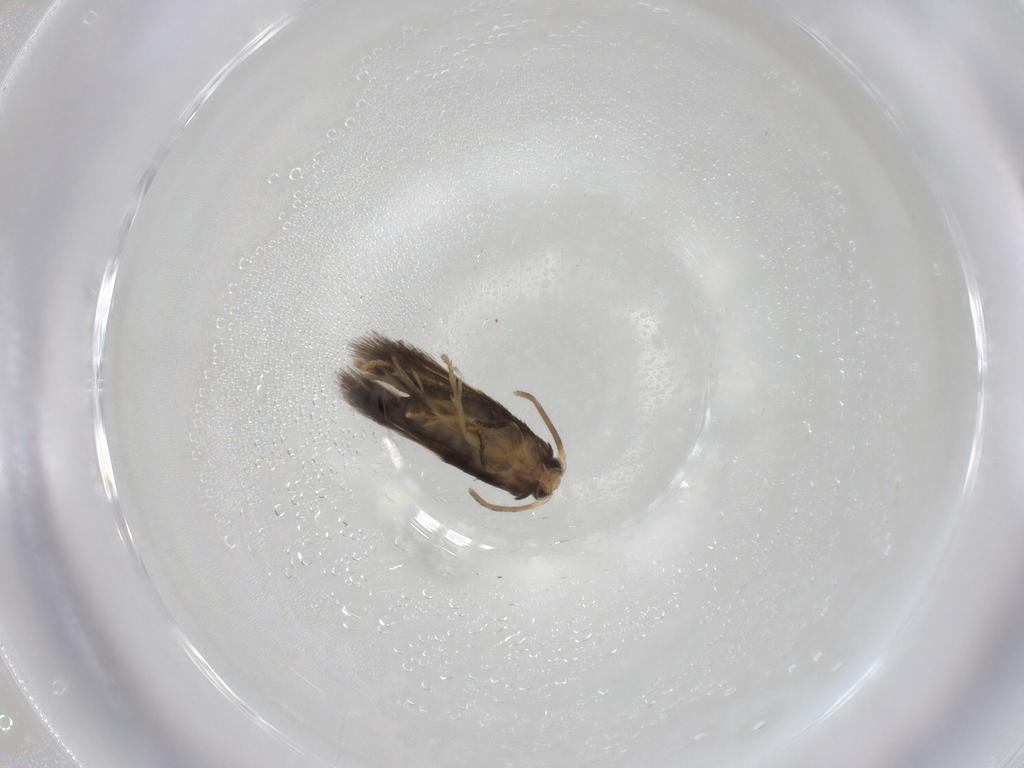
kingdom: Animalia
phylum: Arthropoda
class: Insecta
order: Lepidoptera
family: Nepticulidae
